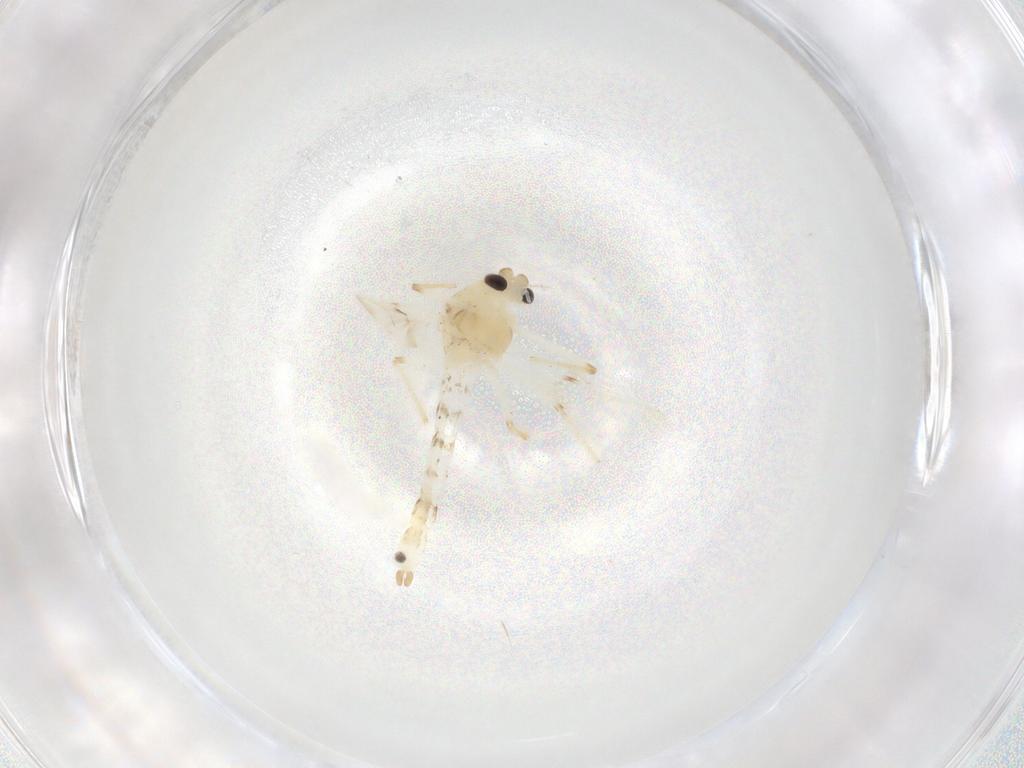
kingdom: Animalia
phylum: Arthropoda
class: Insecta
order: Diptera
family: Chironomidae
